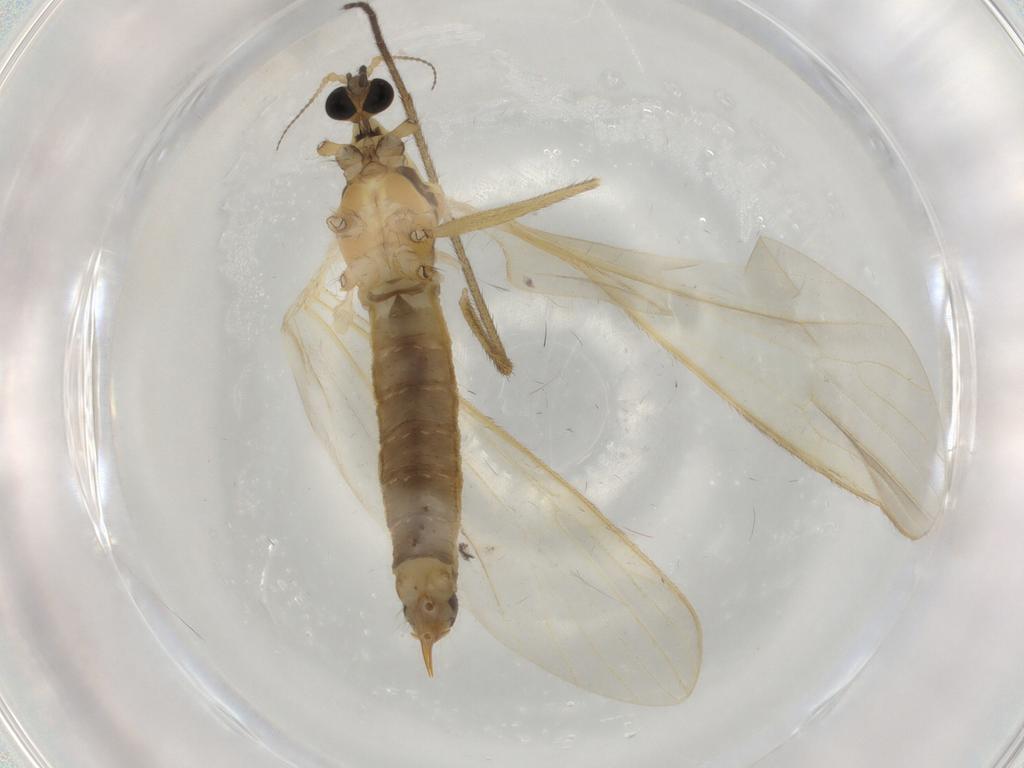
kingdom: Animalia
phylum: Arthropoda
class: Insecta
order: Diptera
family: Limoniidae
